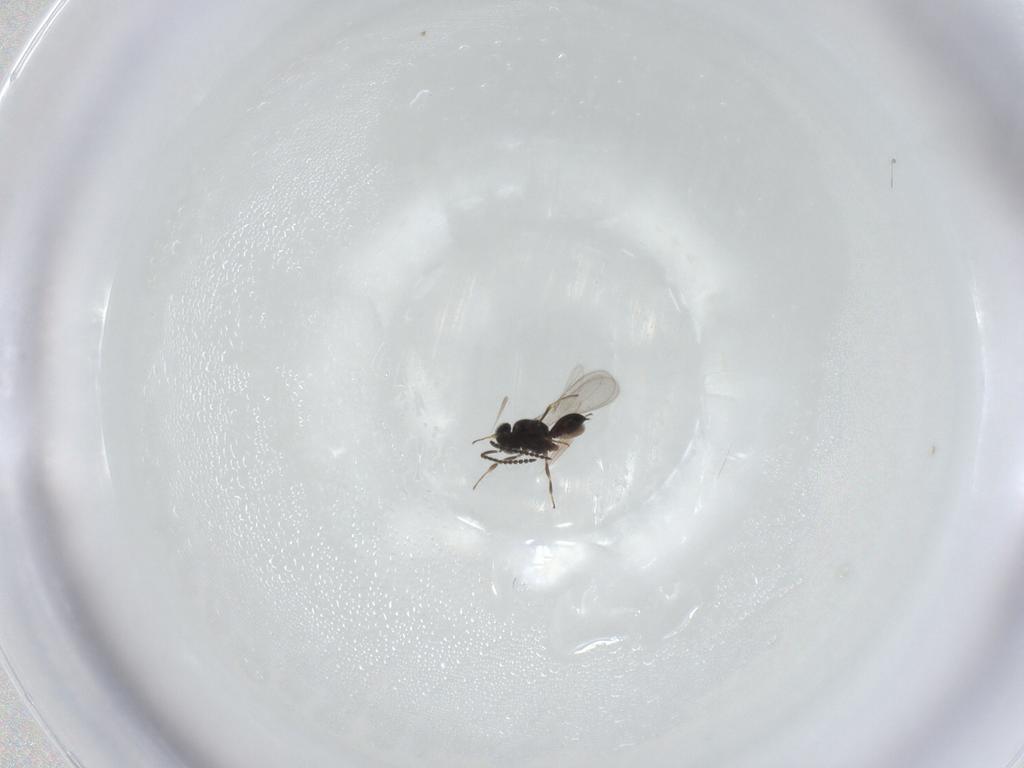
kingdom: Animalia
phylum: Arthropoda
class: Insecta
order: Hymenoptera
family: Scelionidae
